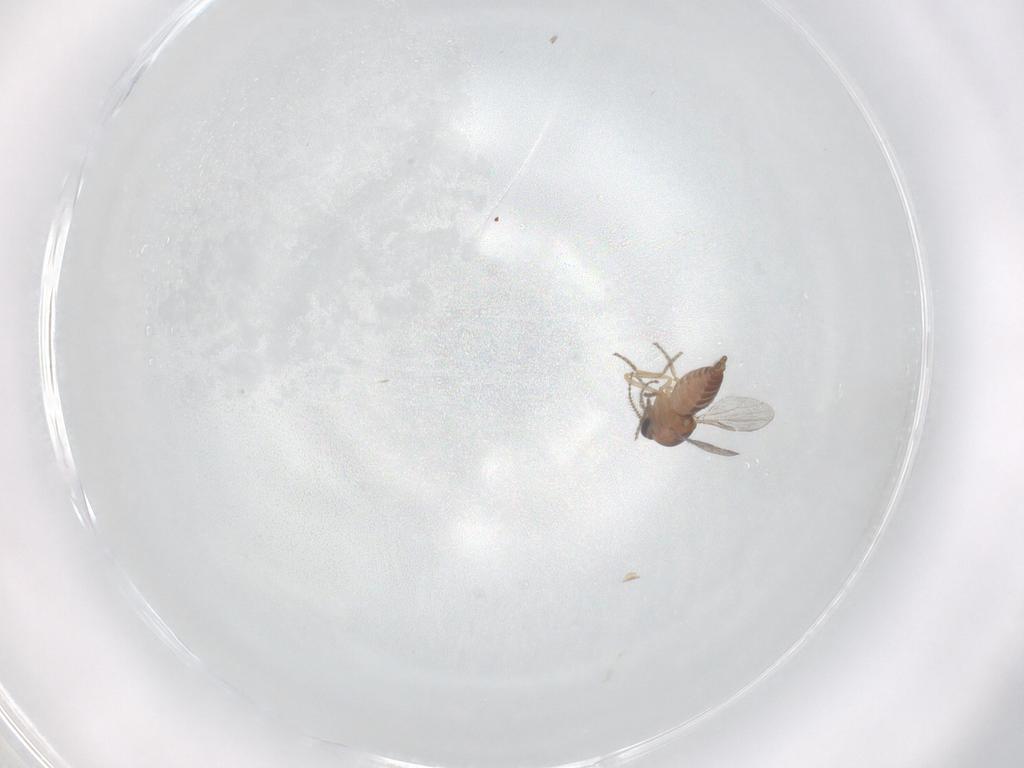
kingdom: Animalia
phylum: Arthropoda
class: Insecta
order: Diptera
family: Ceratopogonidae
